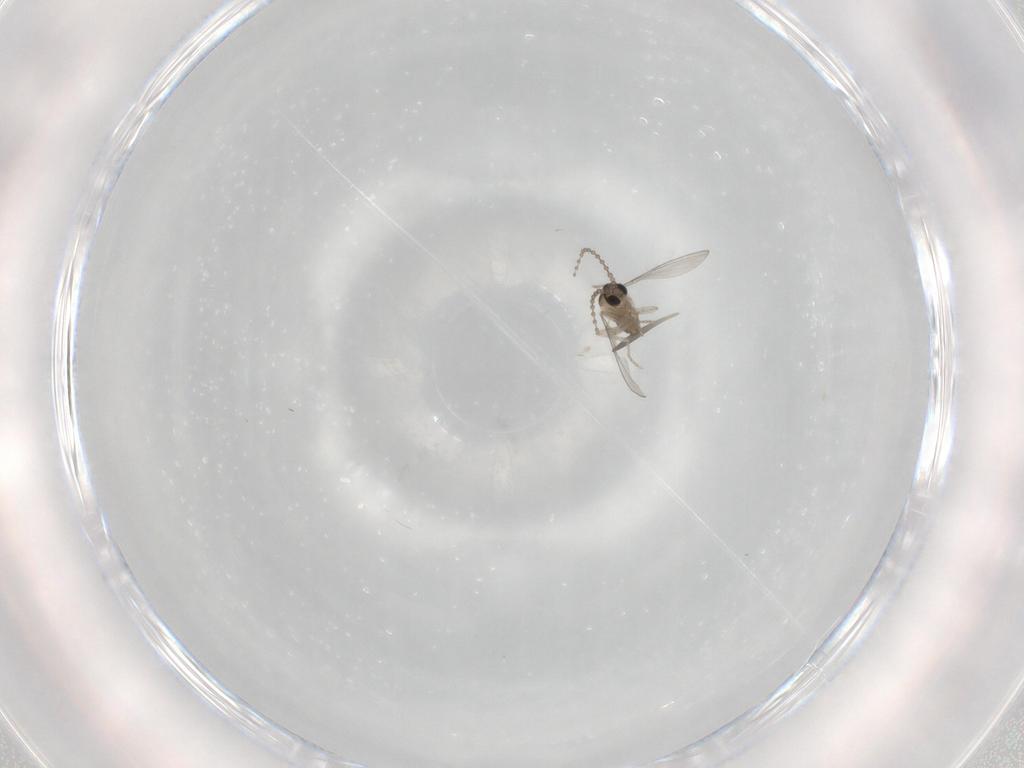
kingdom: Animalia
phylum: Arthropoda
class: Insecta
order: Diptera
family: Cecidomyiidae
